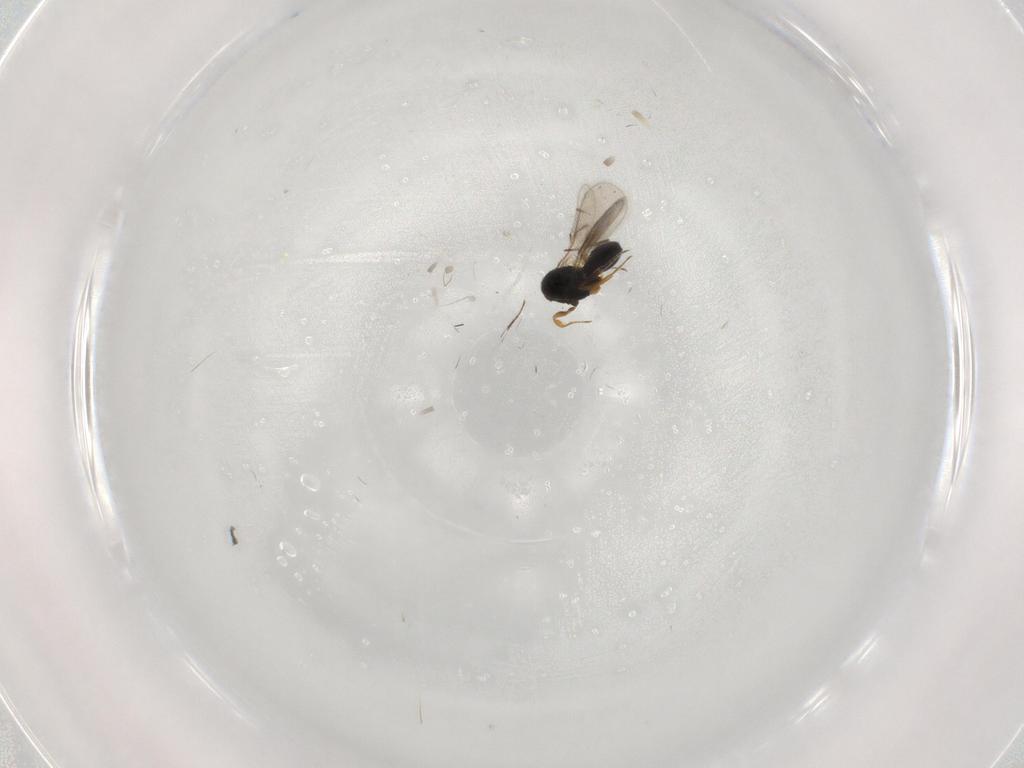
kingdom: Animalia
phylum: Arthropoda
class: Insecta
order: Hymenoptera
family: Scelionidae
